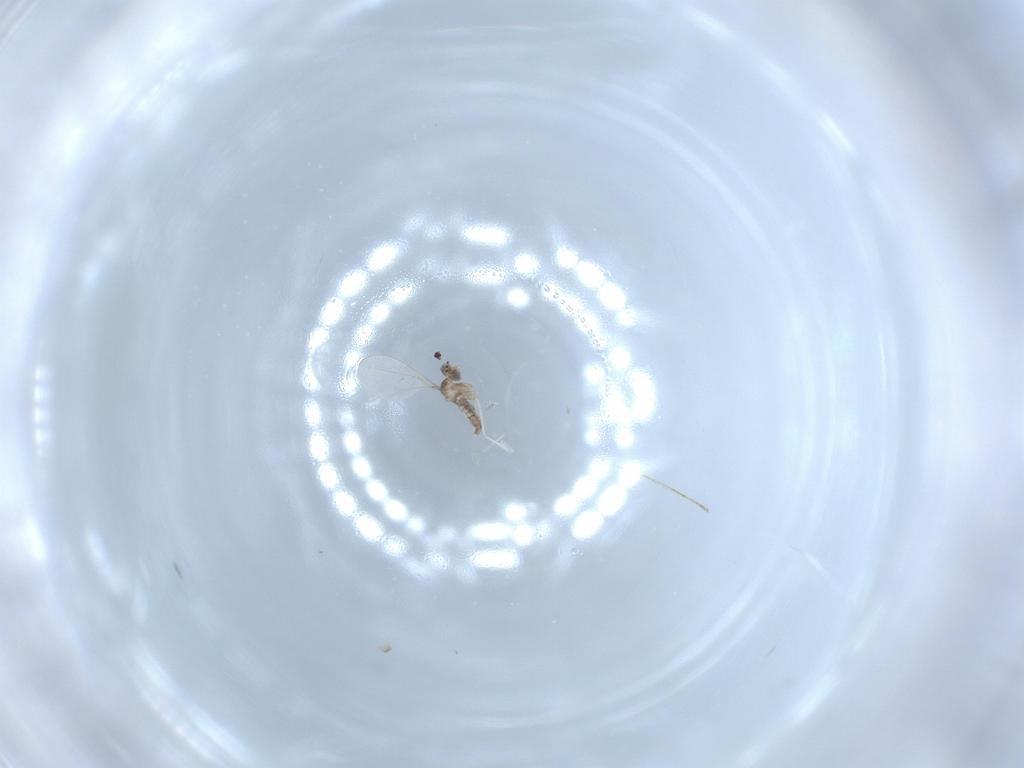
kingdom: Animalia
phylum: Arthropoda
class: Insecta
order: Diptera
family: Cecidomyiidae
